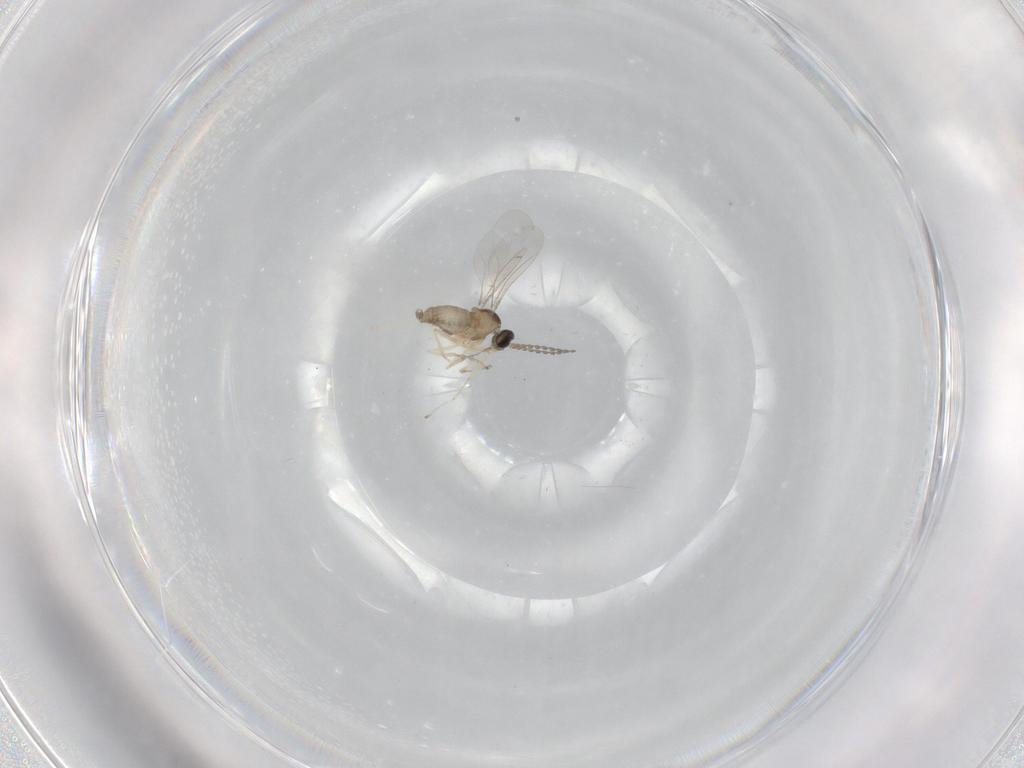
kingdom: Animalia
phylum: Arthropoda
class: Insecta
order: Diptera
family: Cecidomyiidae
